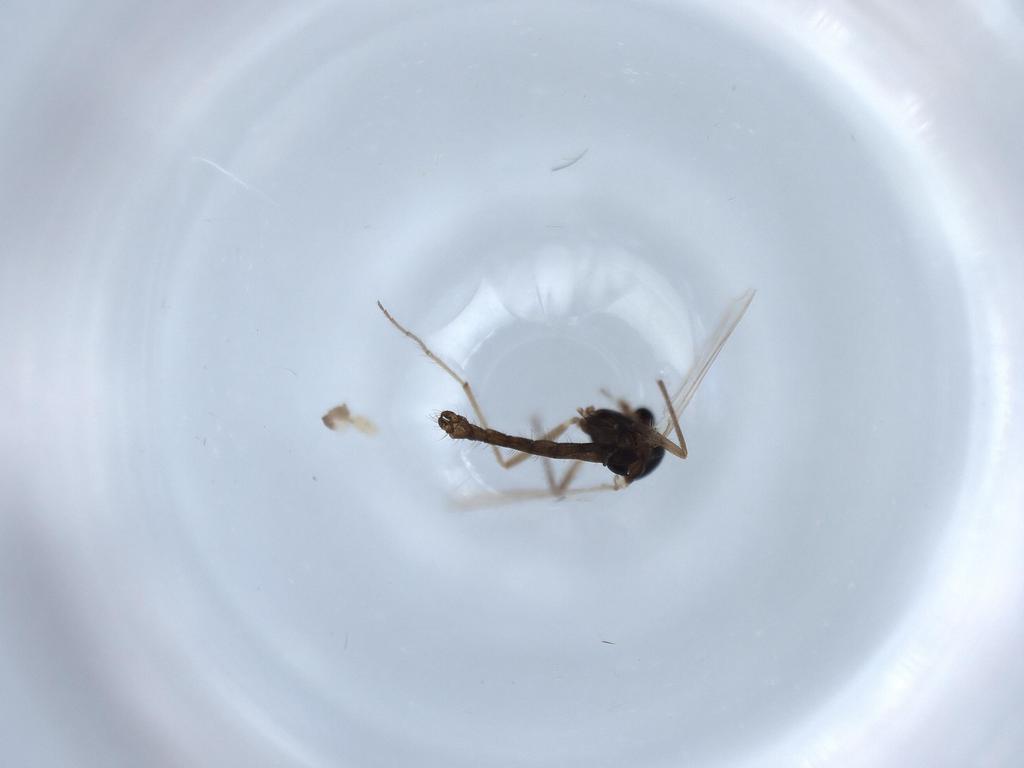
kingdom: Animalia
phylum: Arthropoda
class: Insecta
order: Diptera
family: Chironomidae
